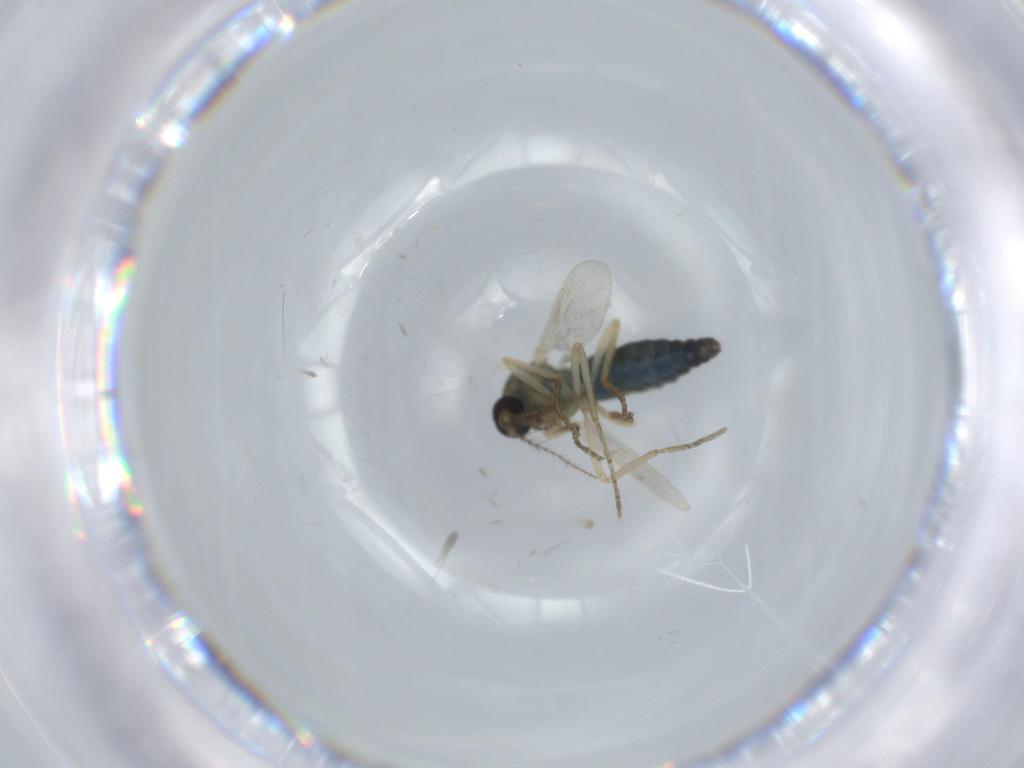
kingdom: Animalia
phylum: Arthropoda
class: Insecta
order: Diptera
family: Ceratopogonidae
